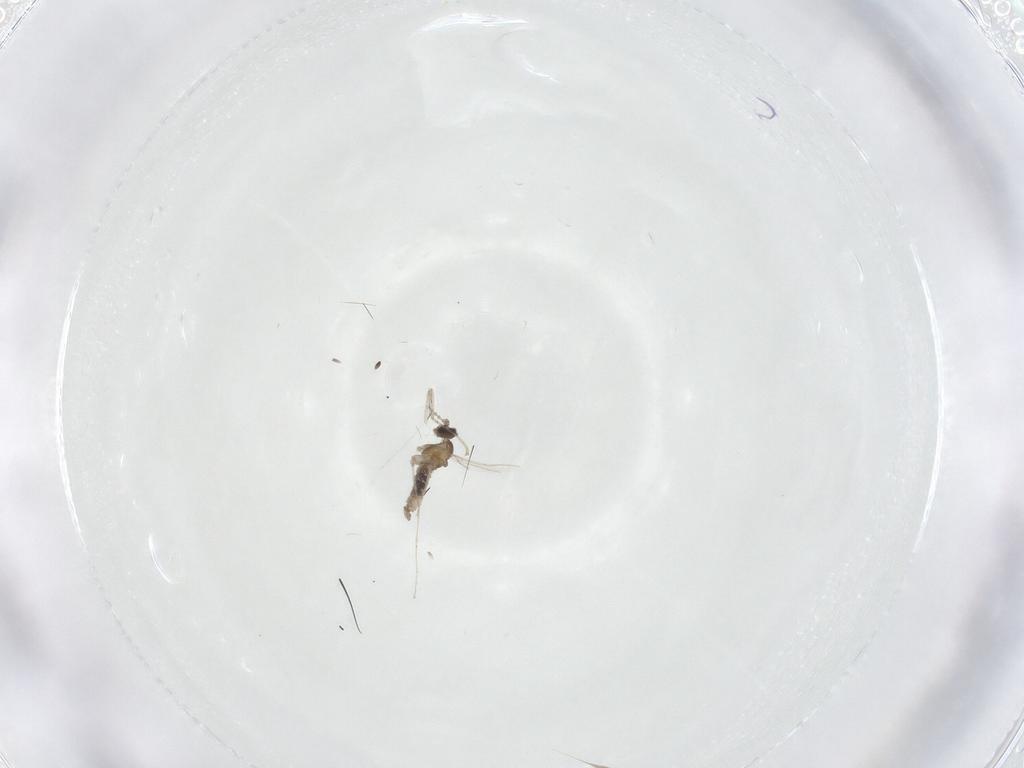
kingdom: Animalia
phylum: Arthropoda
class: Insecta
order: Diptera
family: Cecidomyiidae
